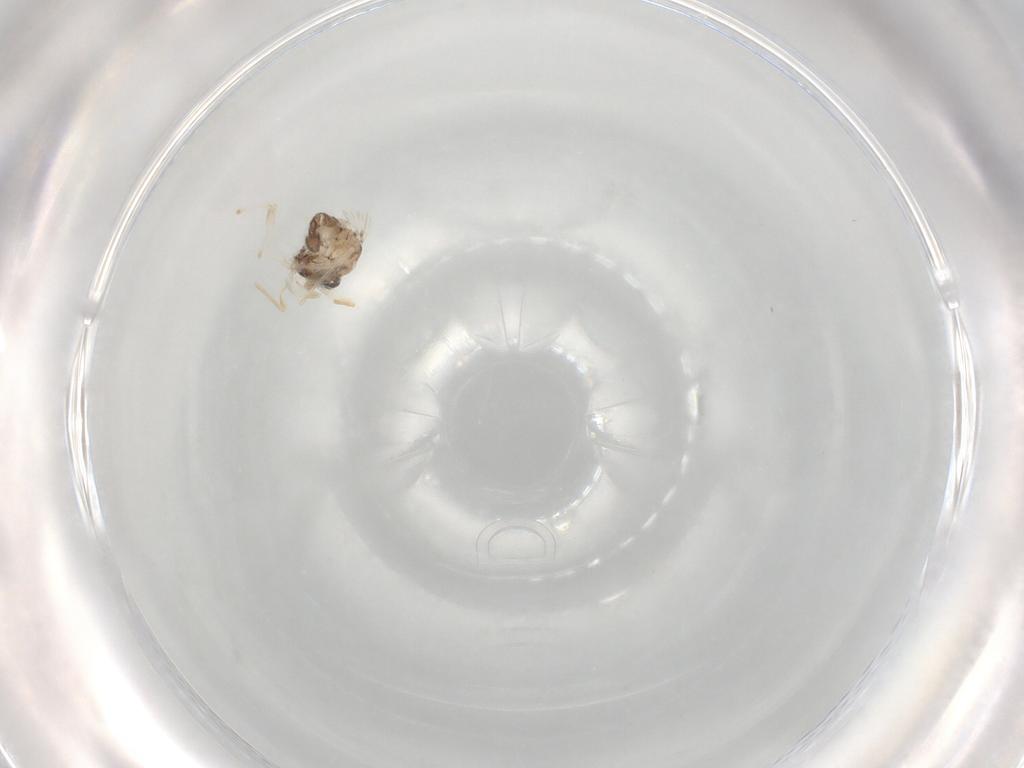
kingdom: Animalia
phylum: Arthropoda
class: Insecta
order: Diptera
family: Chironomidae
